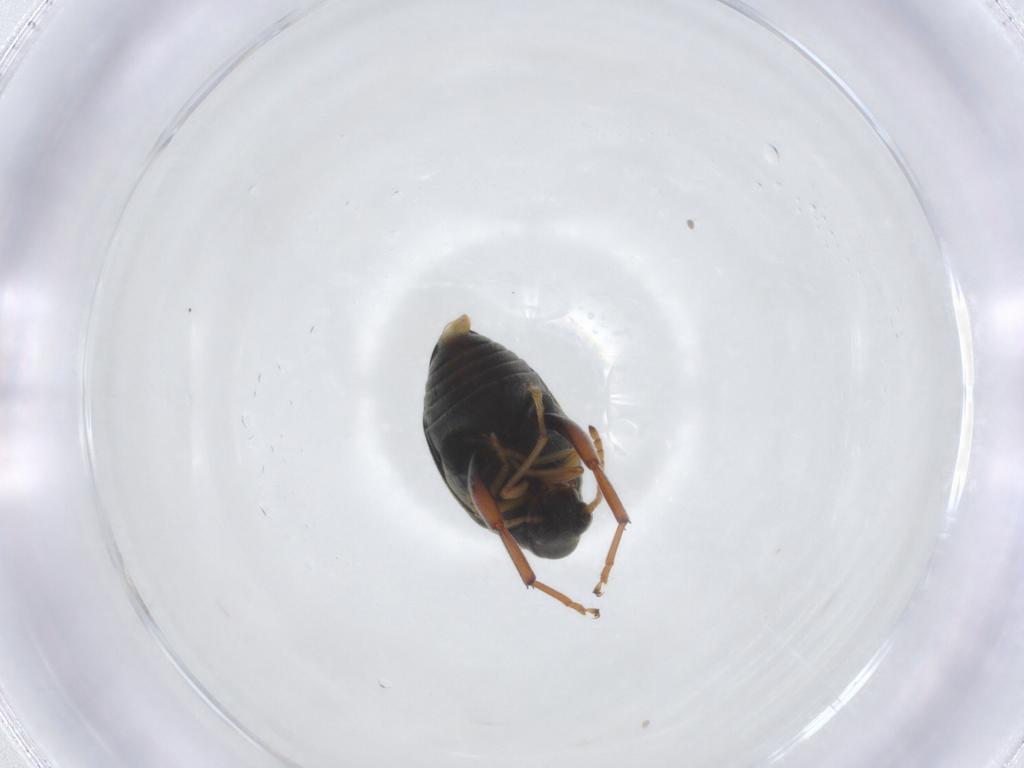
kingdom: Animalia
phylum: Arthropoda
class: Insecta
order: Coleoptera
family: Chrysomelidae
